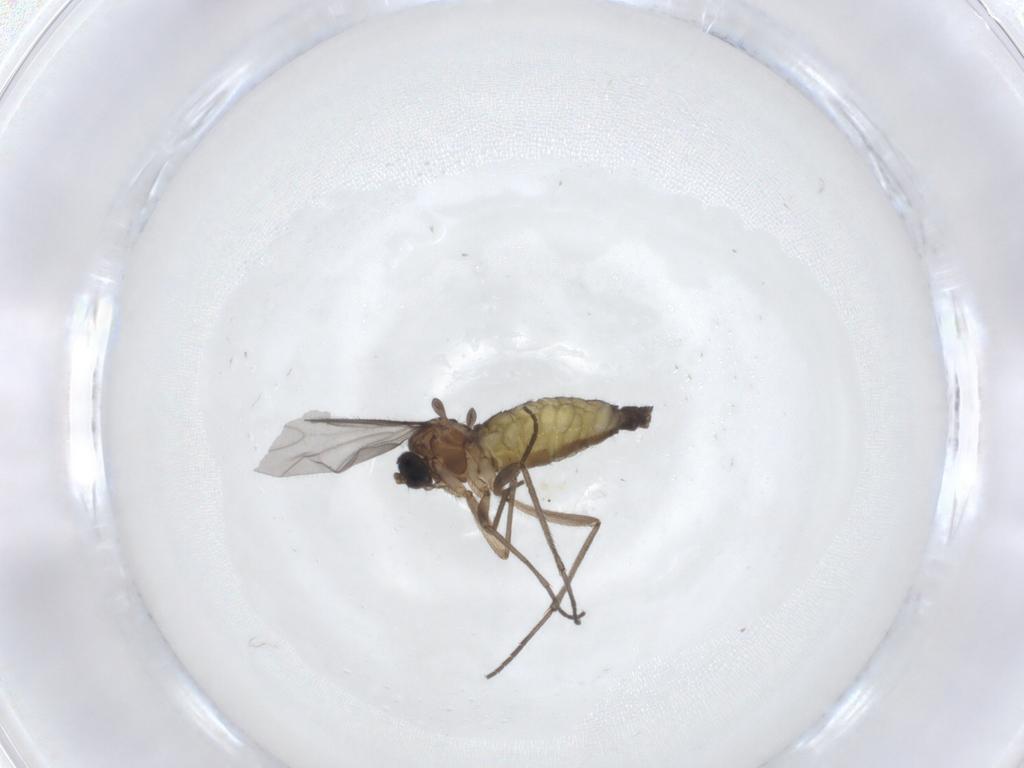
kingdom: Animalia
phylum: Arthropoda
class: Insecta
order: Diptera
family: Sciaridae
